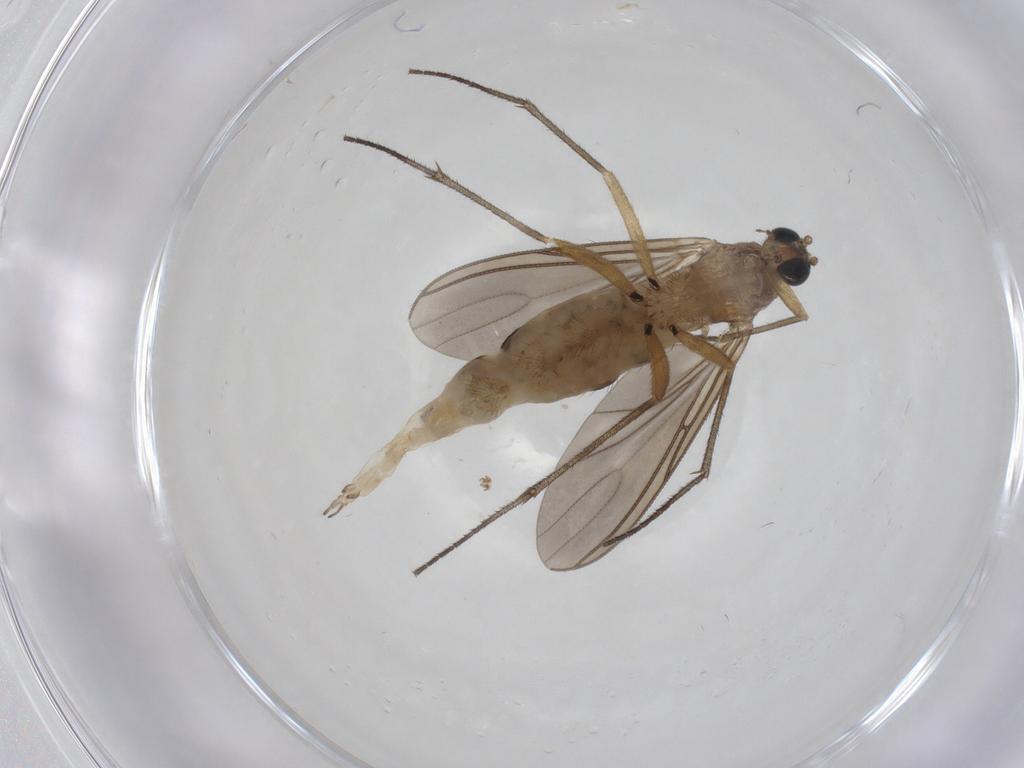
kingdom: Animalia
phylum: Arthropoda
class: Insecta
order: Diptera
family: Sciaridae
